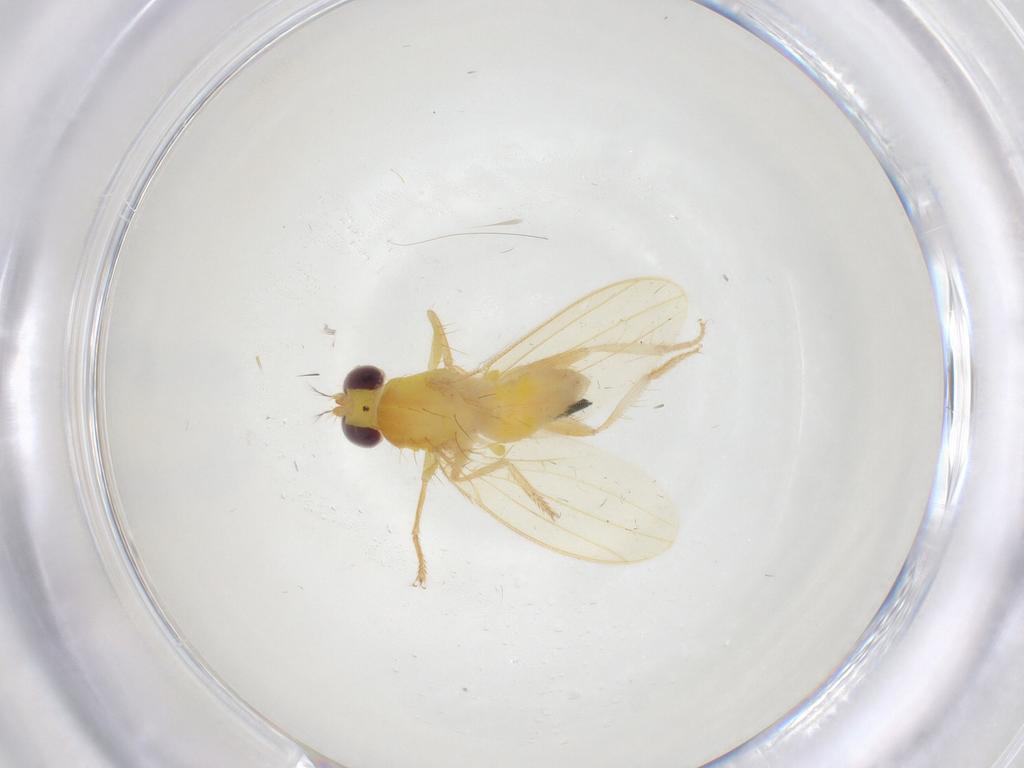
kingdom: Animalia
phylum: Arthropoda
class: Insecta
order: Diptera
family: Periscelididae
